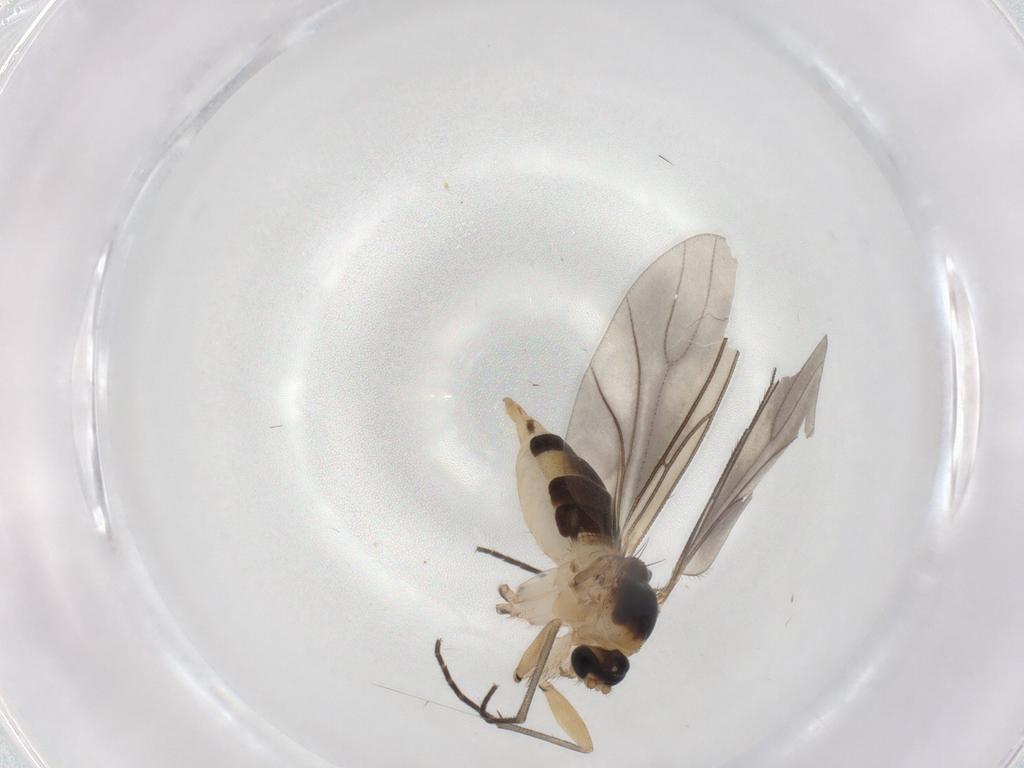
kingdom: Animalia
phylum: Arthropoda
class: Insecta
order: Diptera
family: Sciaridae
